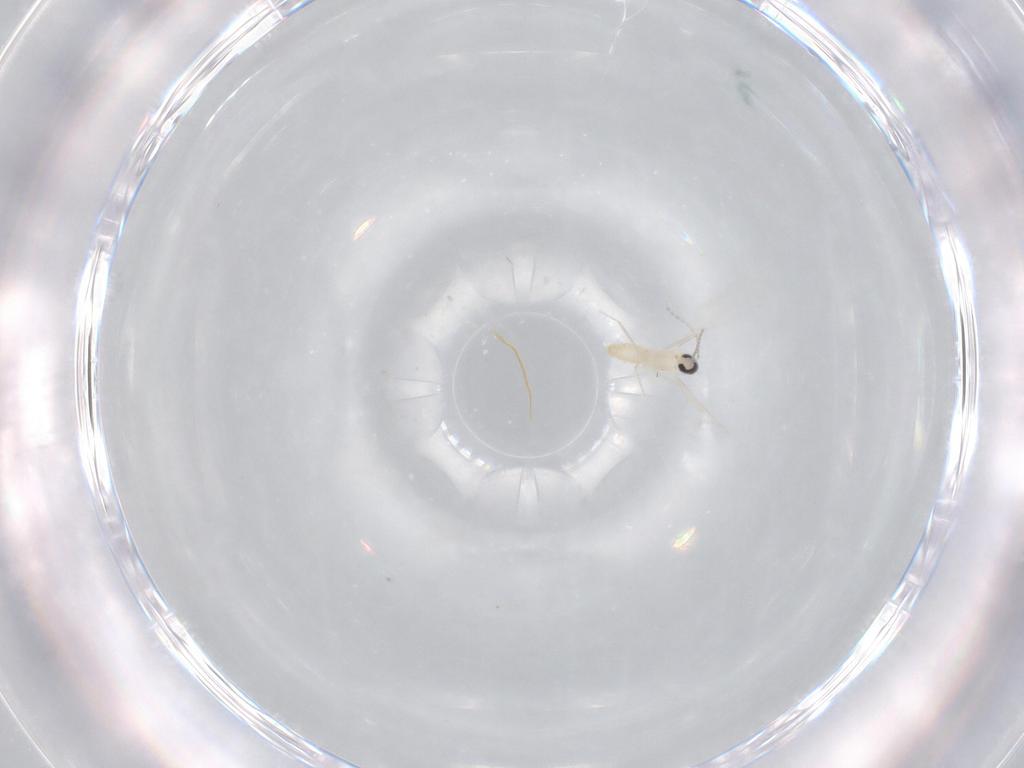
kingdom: Animalia
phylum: Arthropoda
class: Insecta
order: Diptera
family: Cecidomyiidae
